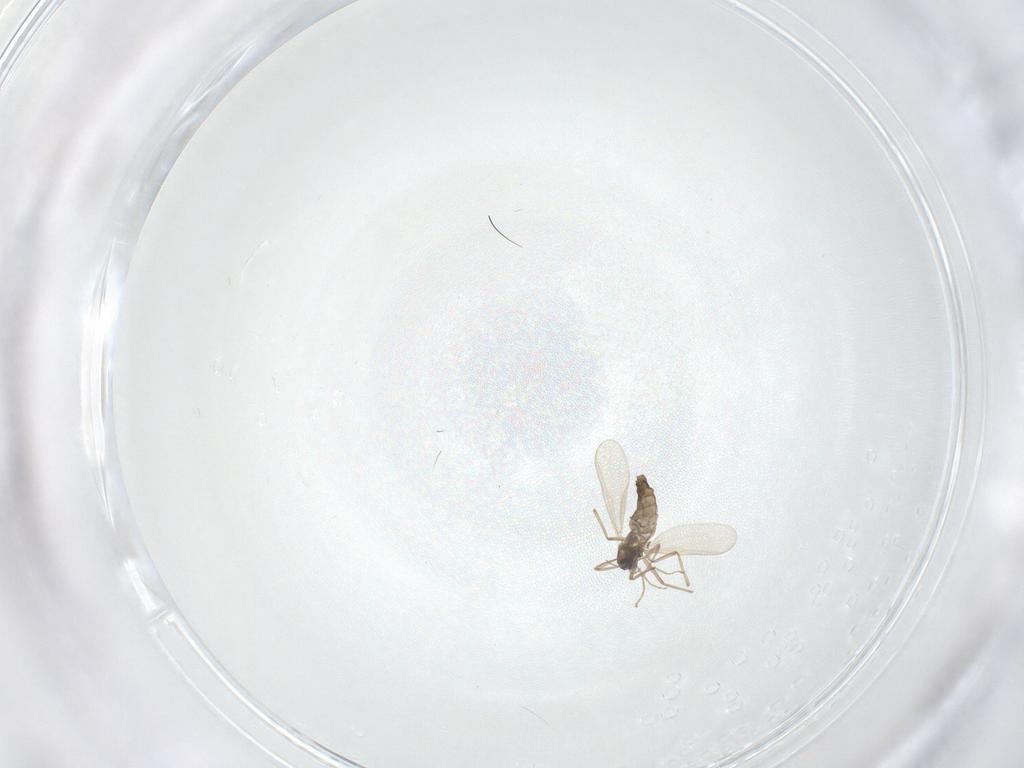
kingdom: Animalia
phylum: Arthropoda
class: Insecta
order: Diptera
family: Chironomidae
